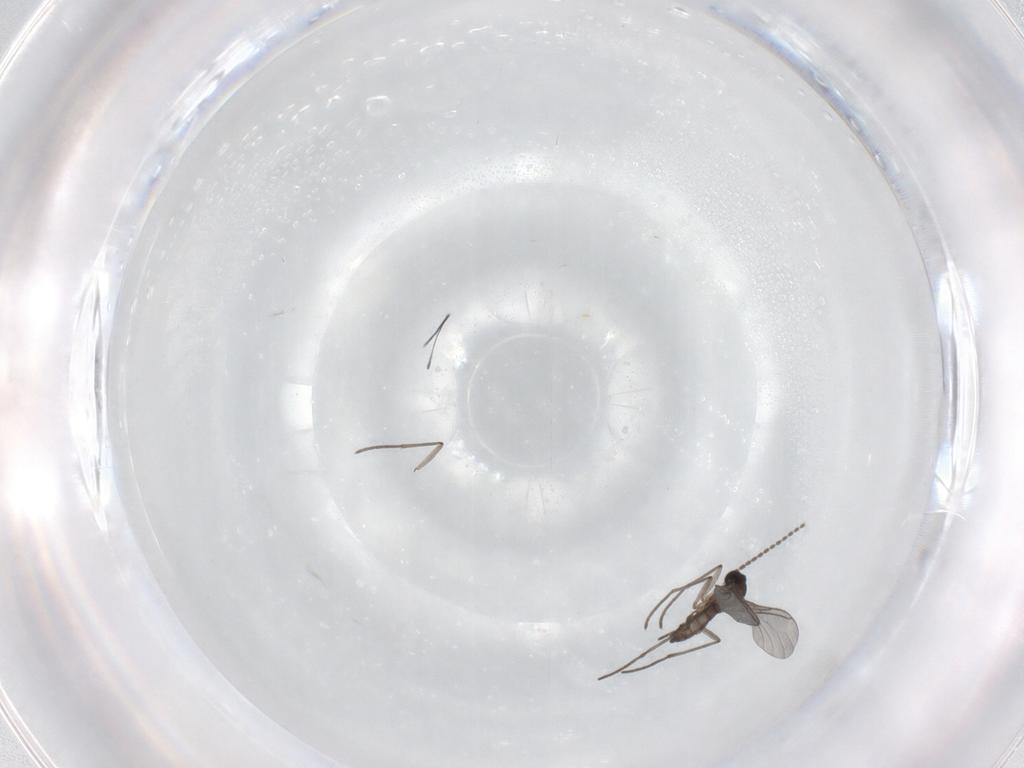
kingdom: Animalia
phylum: Arthropoda
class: Insecta
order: Diptera
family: Sciaridae
